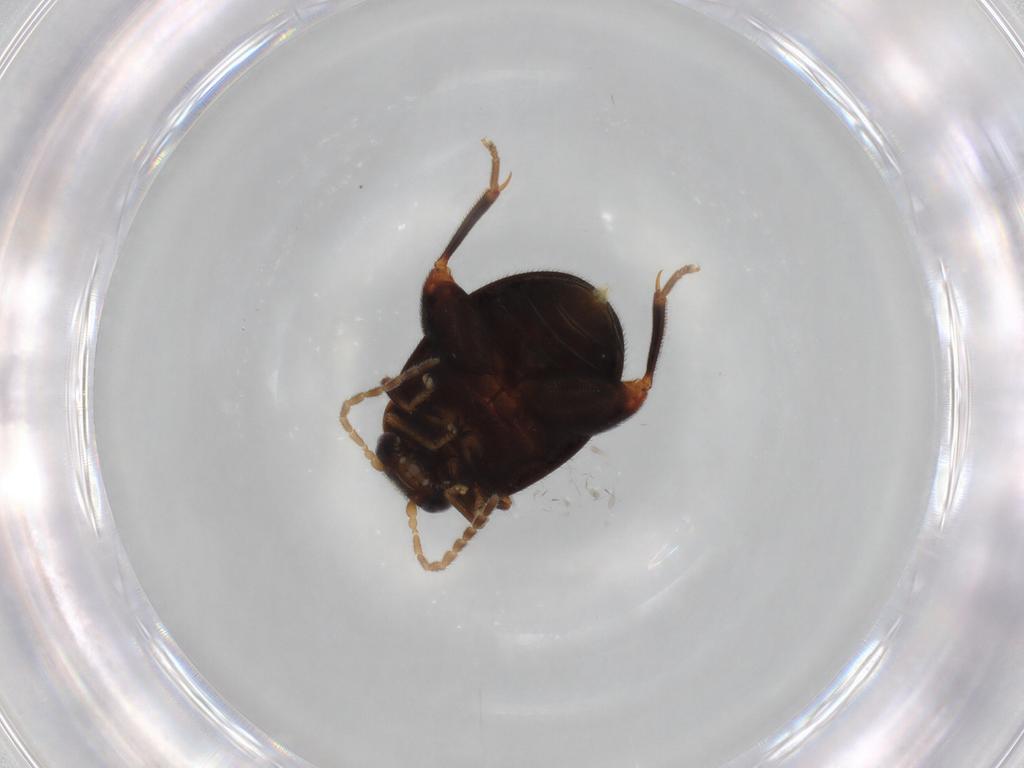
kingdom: Animalia
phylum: Arthropoda
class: Insecta
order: Coleoptera
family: Scirtidae
